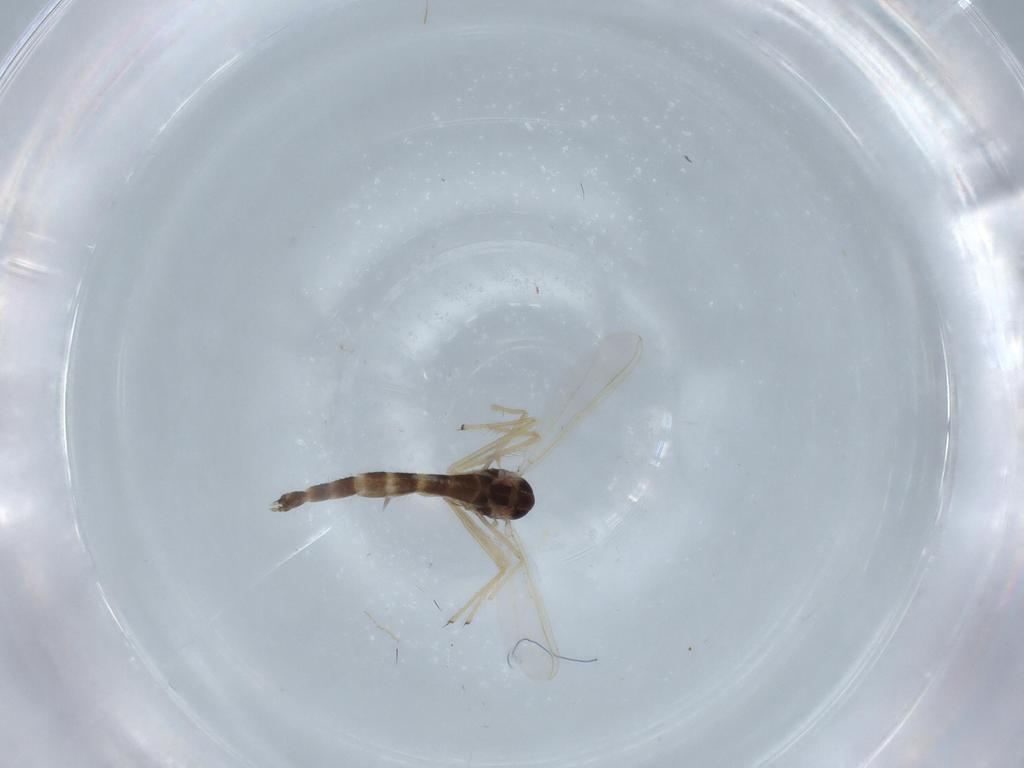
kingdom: Animalia
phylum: Arthropoda
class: Insecta
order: Diptera
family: Chironomidae
